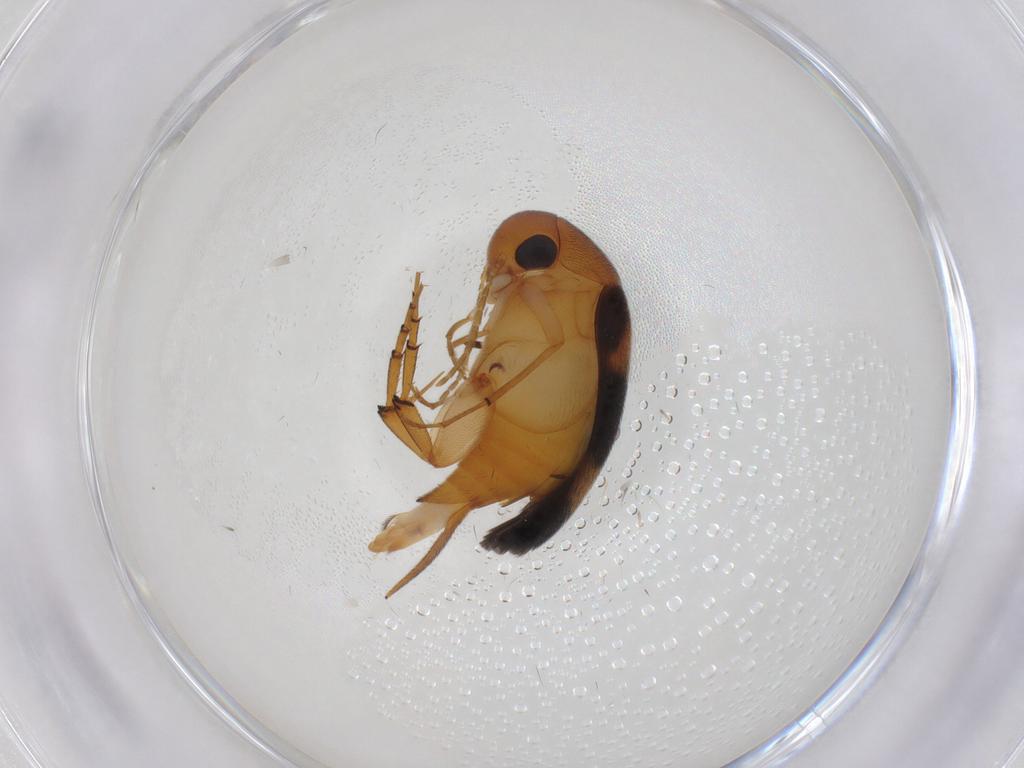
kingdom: Animalia
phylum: Arthropoda
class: Insecta
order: Coleoptera
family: Mordellidae
